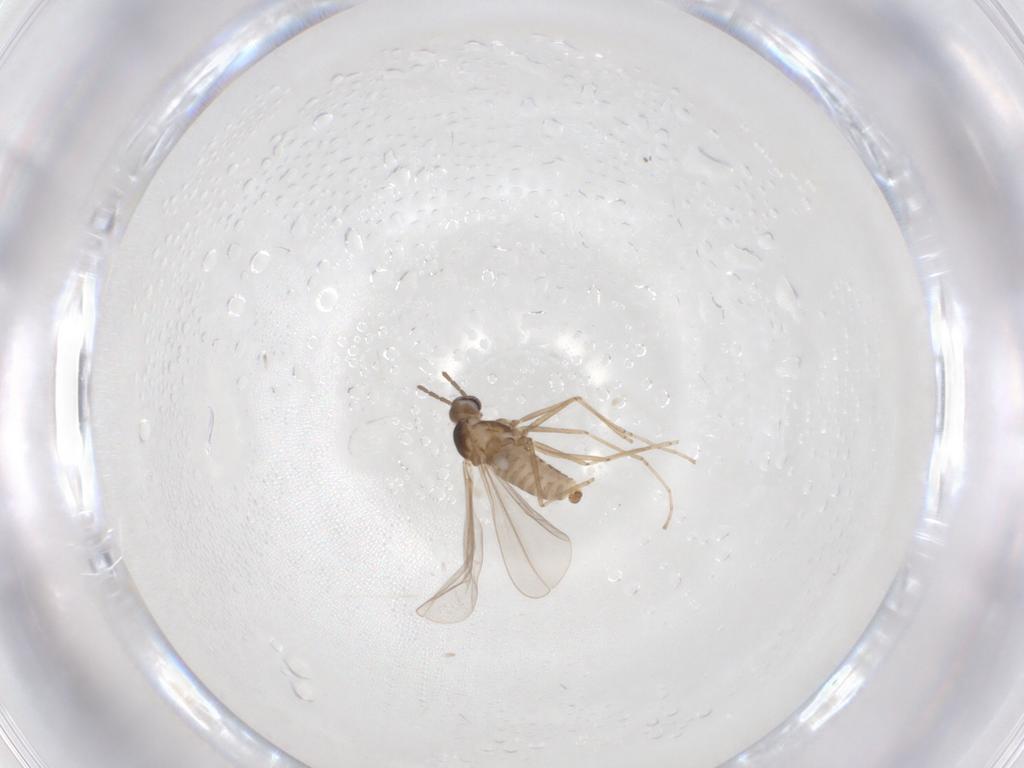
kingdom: Animalia
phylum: Arthropoda
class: Insecta
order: Diptera
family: Cecidomyiidae
